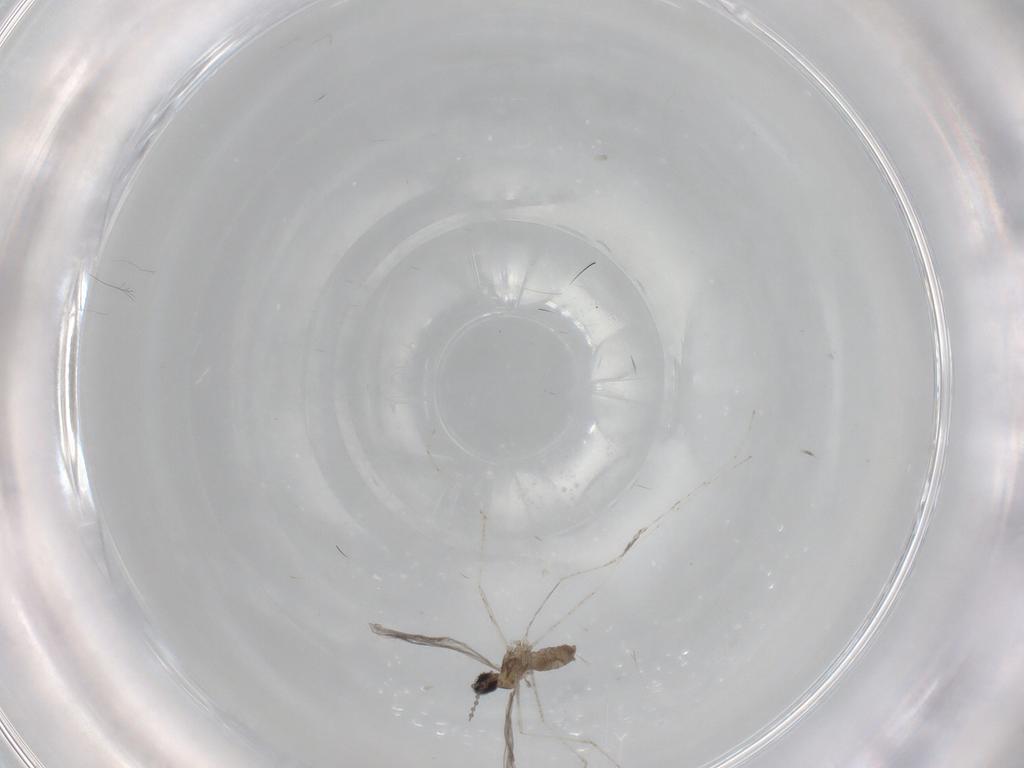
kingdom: Animalia
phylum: Arthropoda
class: Insecta
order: Diptera
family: Cecidomyiidae
